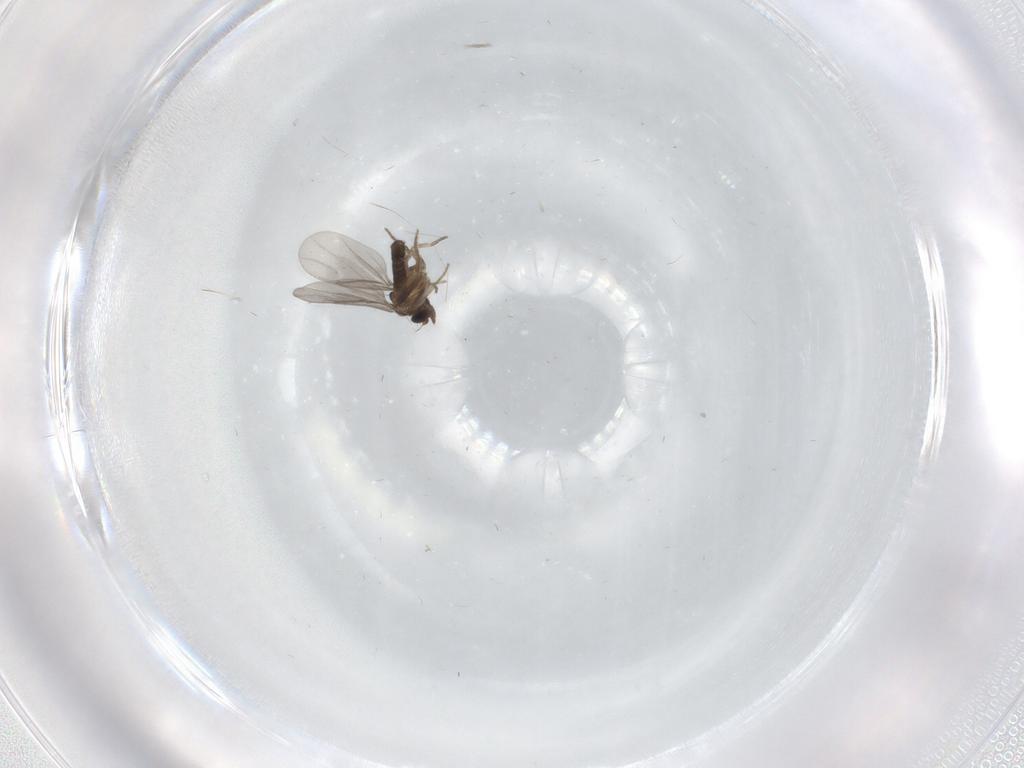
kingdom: Animalia
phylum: Arthropoda
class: Insecta
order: Diptera
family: Phoridae
